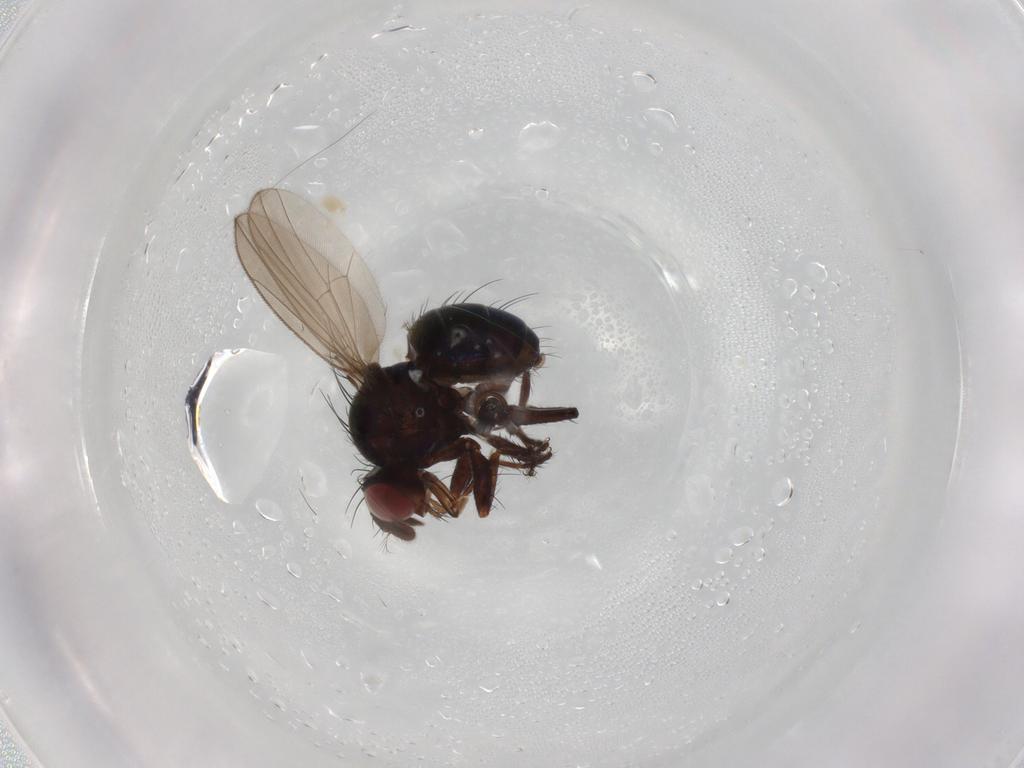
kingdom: Animalia
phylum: Arthropoda
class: Insecta
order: Diptera
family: Ephydridae
